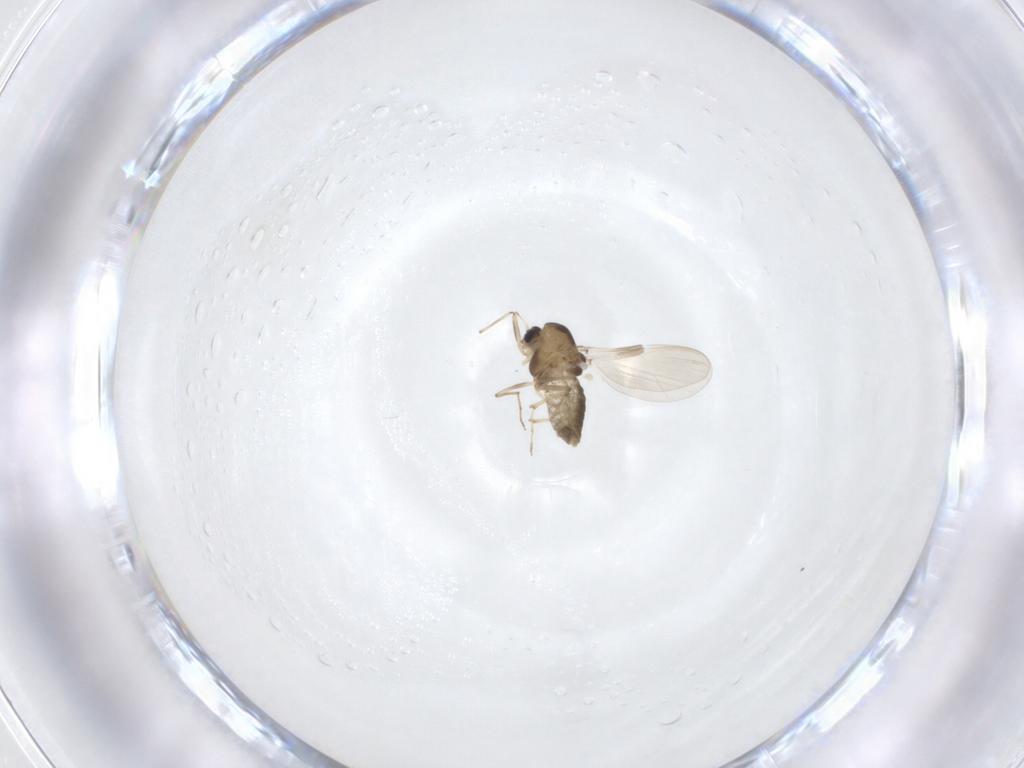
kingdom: Animalia
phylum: Arthropoda
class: Insecta
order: Diptera
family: Chironomidae
